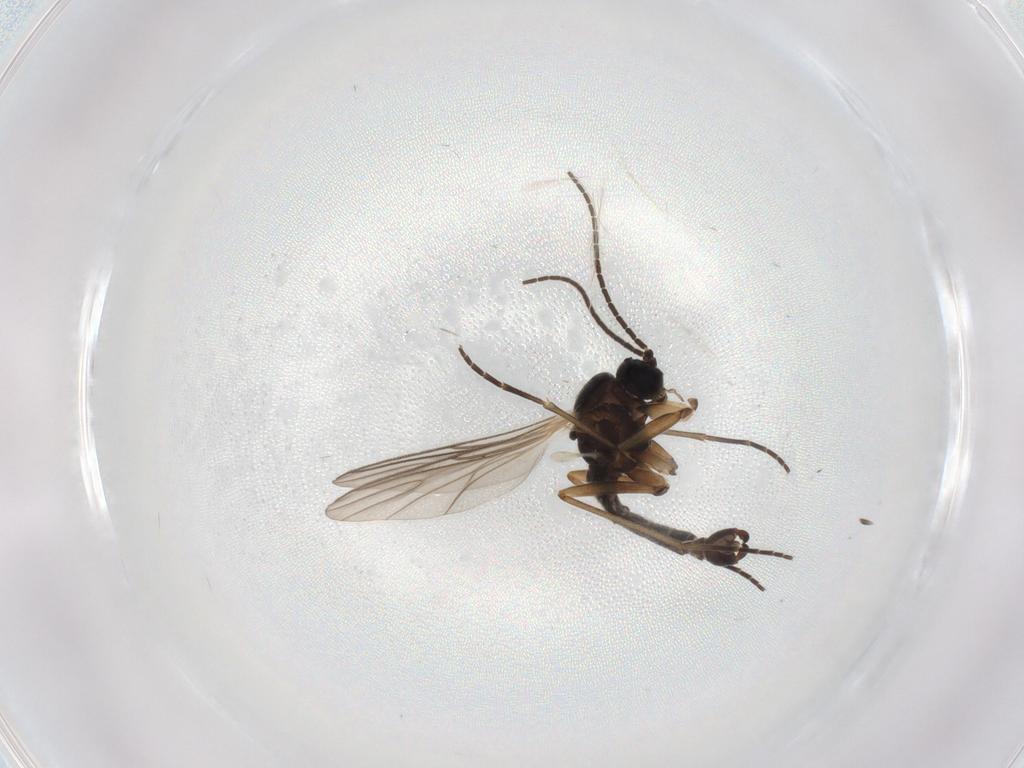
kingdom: Animalia
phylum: Arthropoda
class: Insecta
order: Diptera
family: Sciaridae
